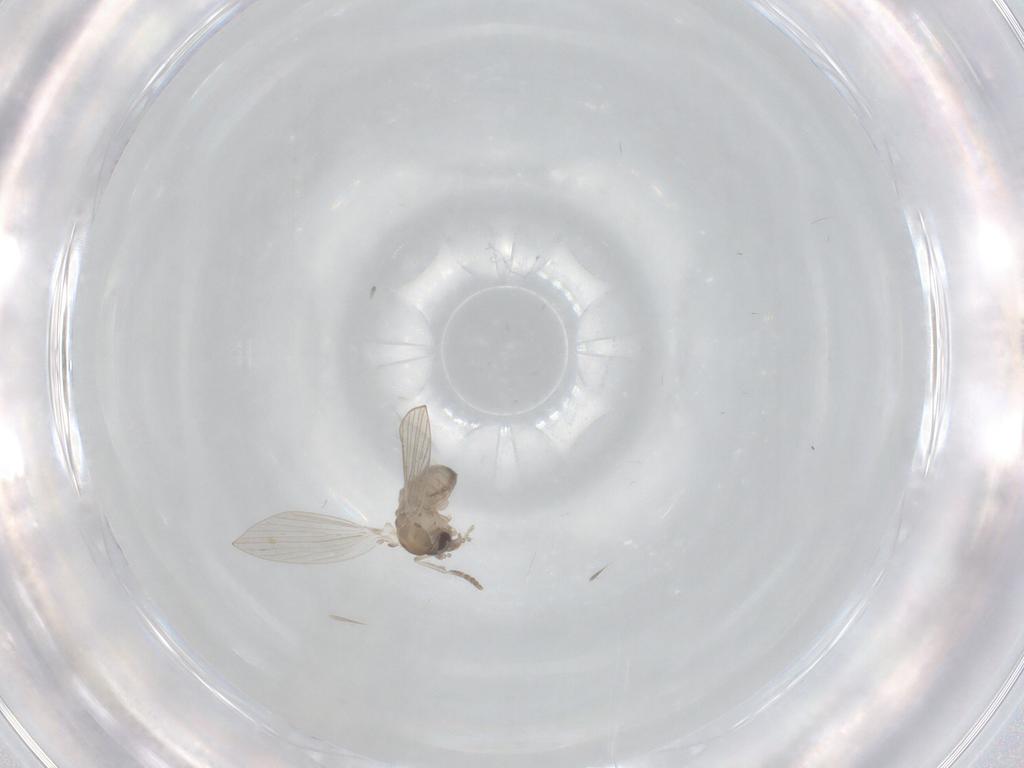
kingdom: Animalia
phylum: Arthropoda
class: Insecta
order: Diptera
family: Psychodidae
